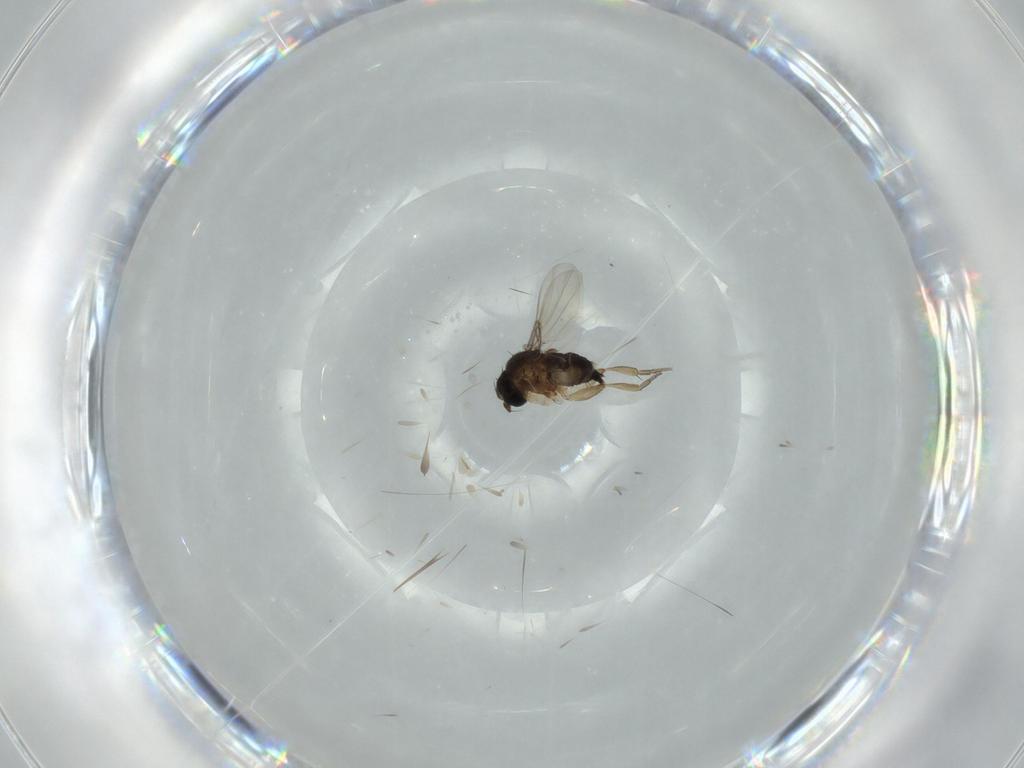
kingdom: Animalia
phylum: Arthropoda
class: Insecta
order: Diptera
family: Phoridae
